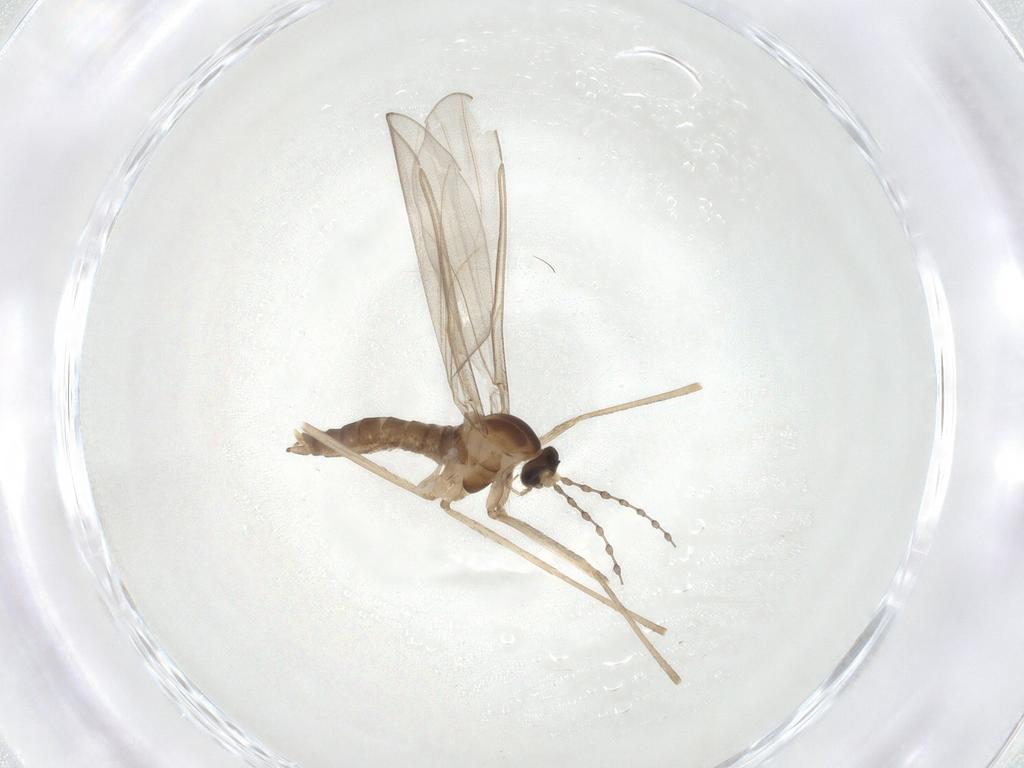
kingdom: Animalia
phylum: Arthropoda
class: Insecta
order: Diptera
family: Cecidomyiidae
